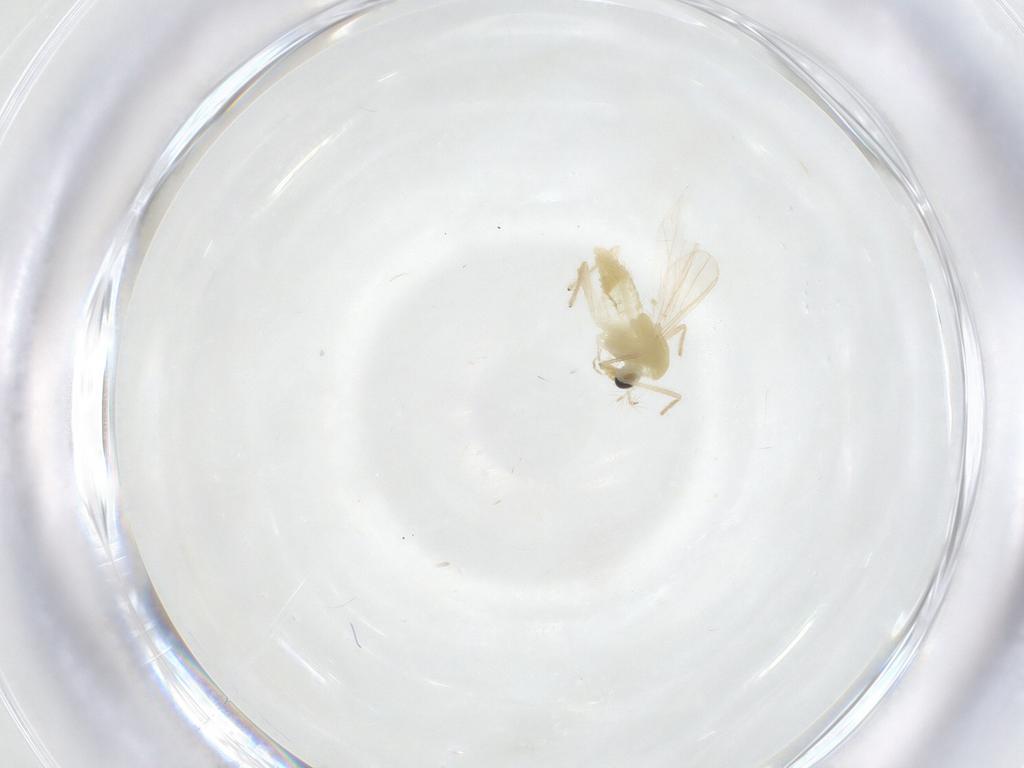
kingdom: Animalia
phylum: Arthropoda
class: Insecta
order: Diptera
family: Chironomidae
